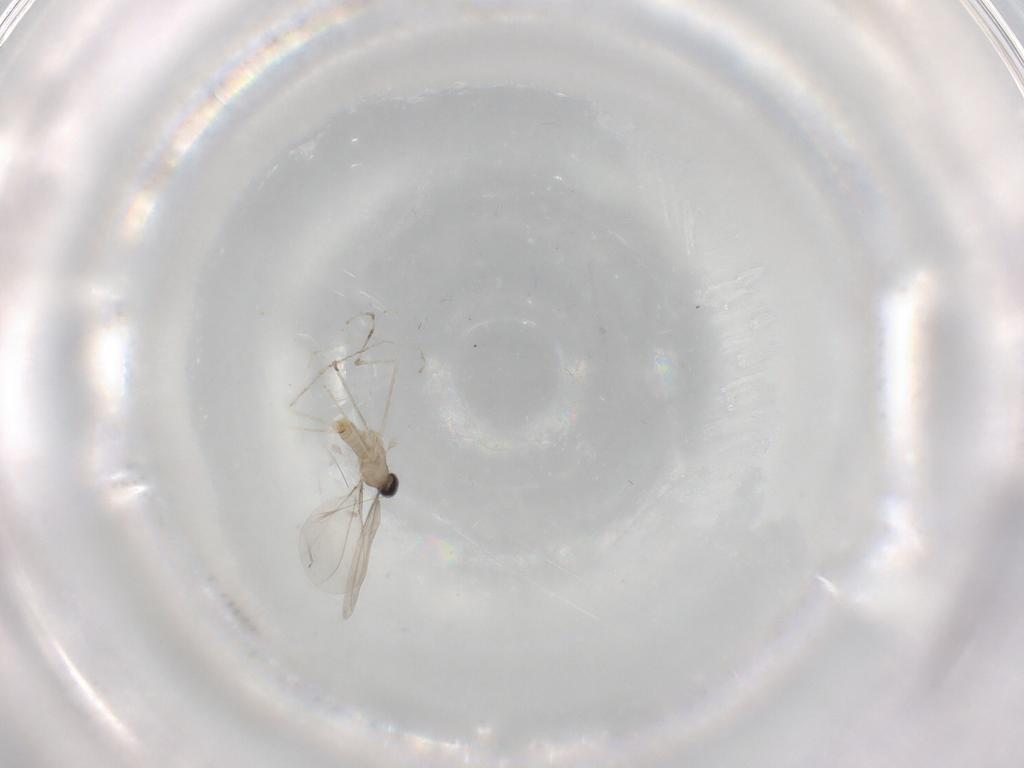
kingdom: Animalia
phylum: Arthropoda
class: Insecta
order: Diptera
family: Muscidae
